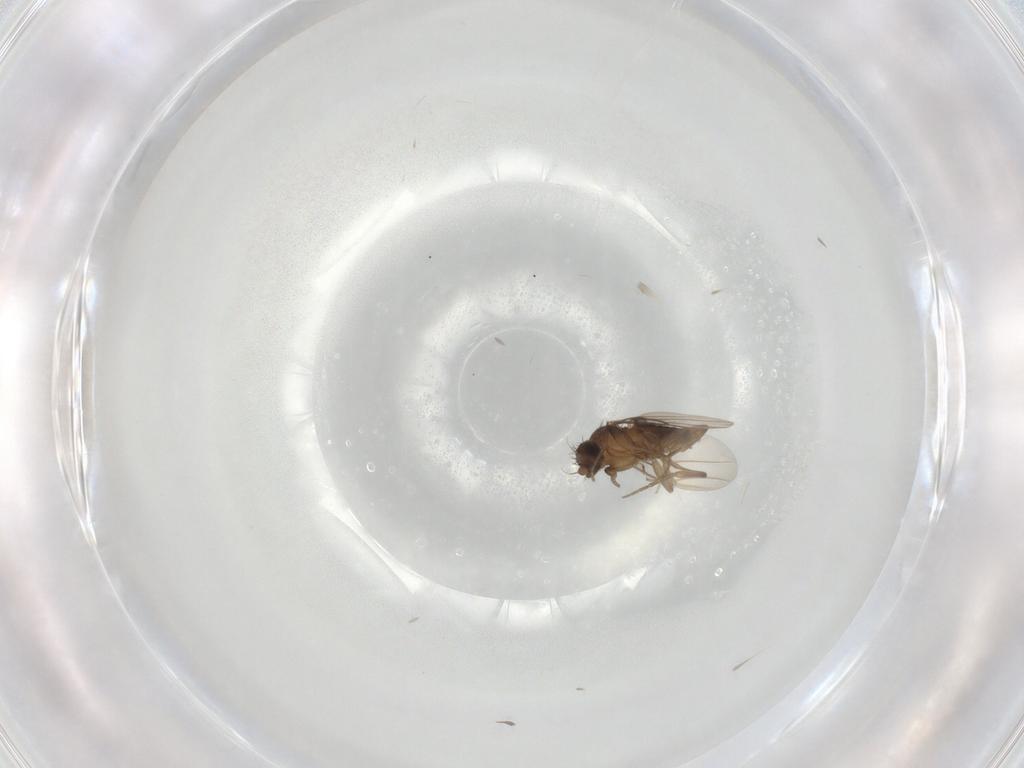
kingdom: Animalia
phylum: Arthropoda
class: Insecta
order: Diptera
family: Phoridae
